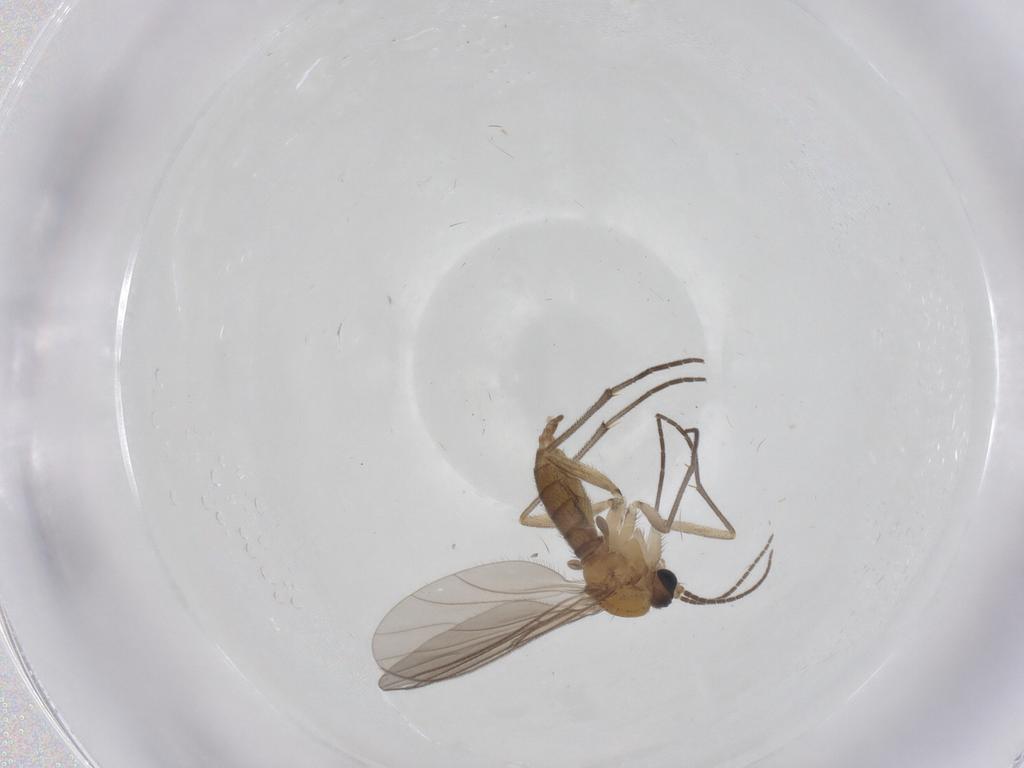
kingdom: Animalia
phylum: Arthropoda
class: Insecta
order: Diptera
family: Sciaridae
